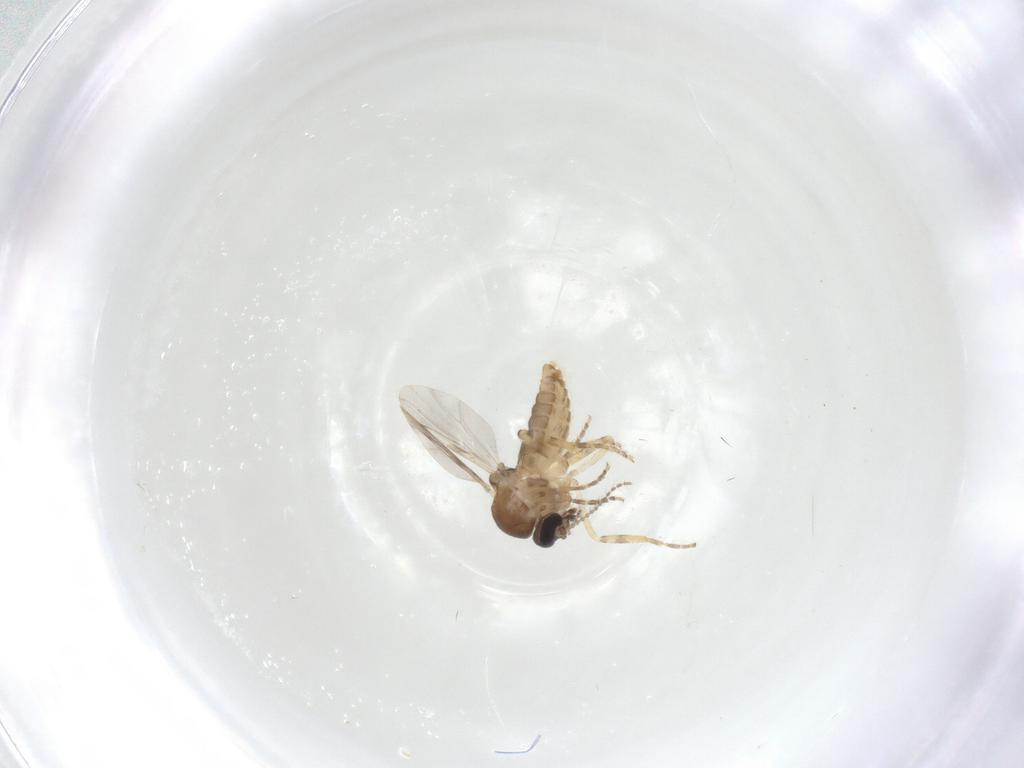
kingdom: Animalia
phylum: Arthropoda
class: Insecta
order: Diptera
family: Ceratopogonidae
